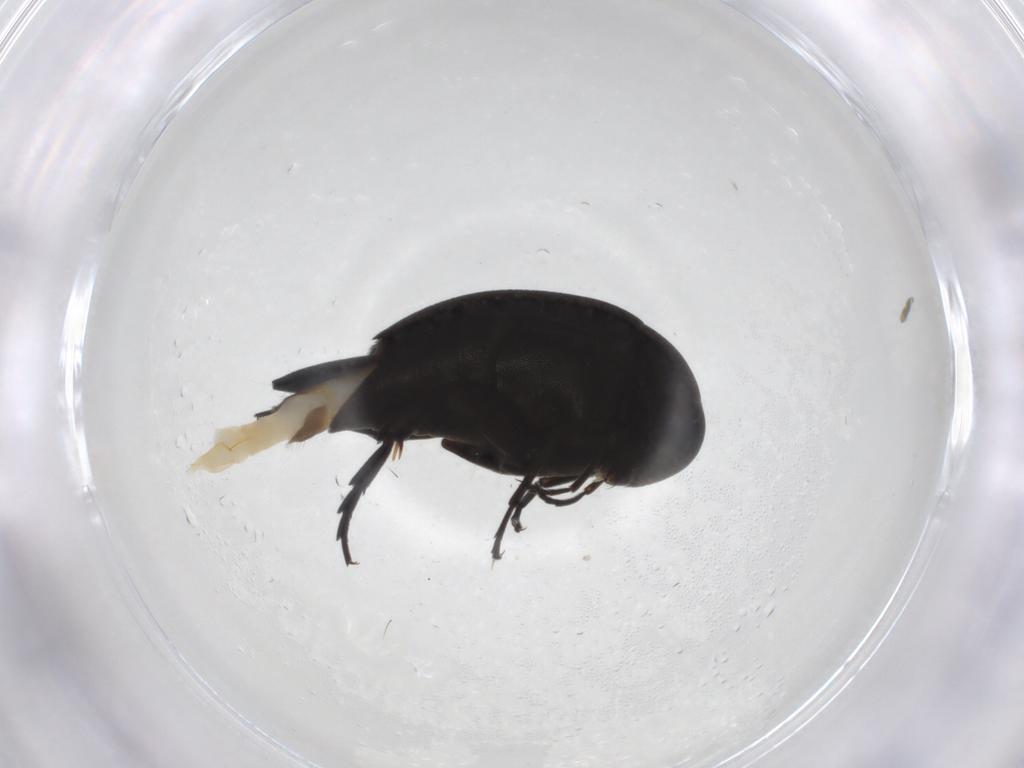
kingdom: Animalia
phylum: Arthropoda
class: Insecta
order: Coleoptera
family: Mordellidae
